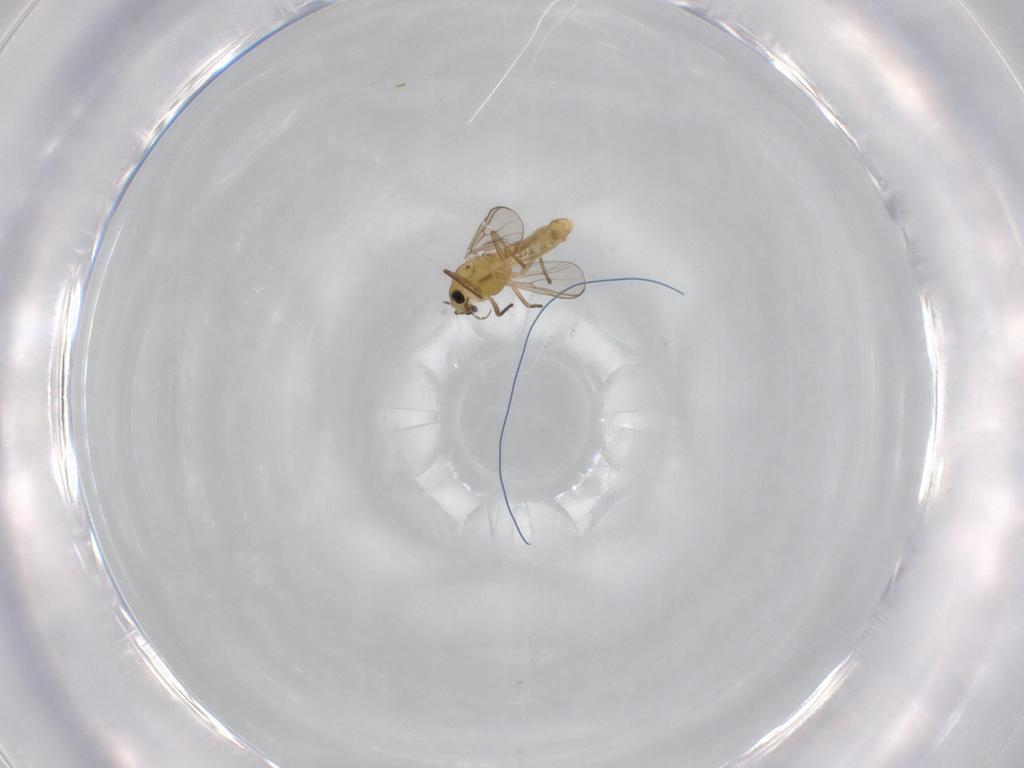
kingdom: Animalia
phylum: Arthropoda
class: Insecta
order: Diptera
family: Chironomidae
